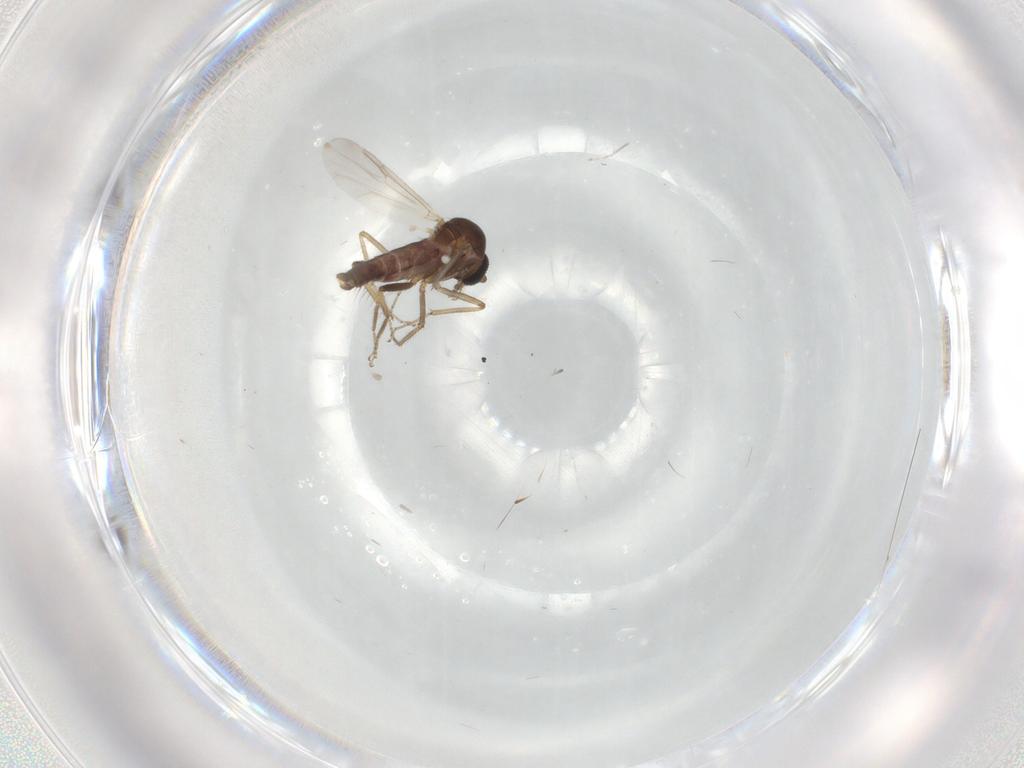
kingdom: Animalia
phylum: Arthropoda
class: Insecta
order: Diptera
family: Ceratopogonidae
